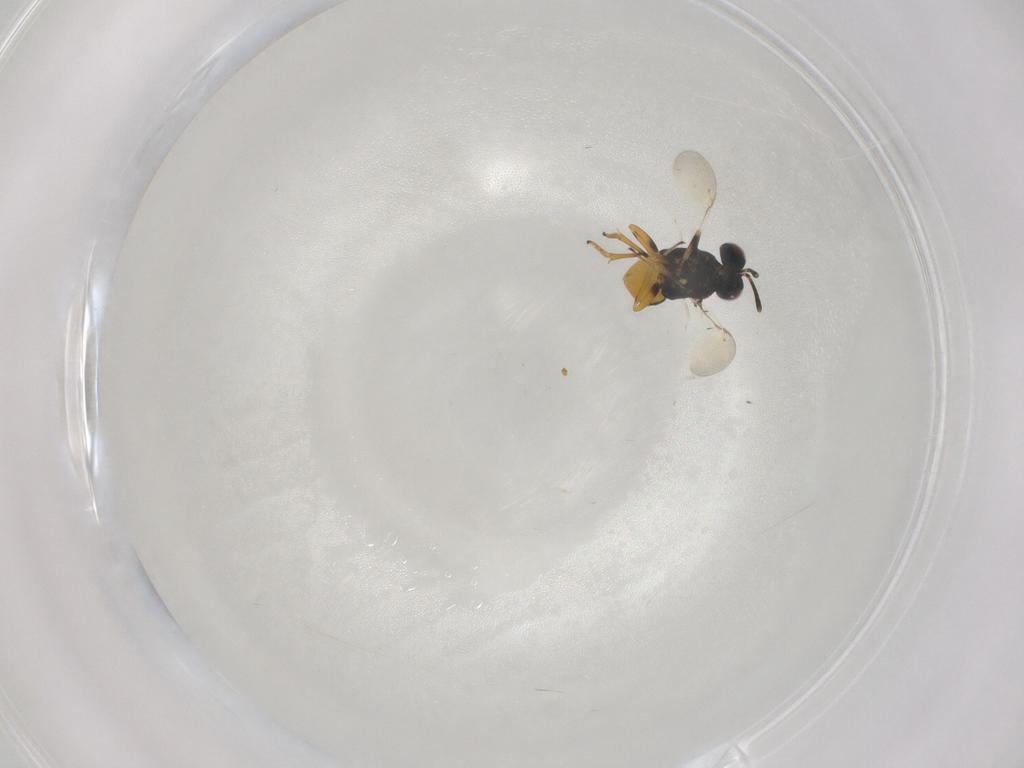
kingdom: Animalia
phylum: Arthropoda
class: Insecta
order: Hymenoptera
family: Encyrtidae
